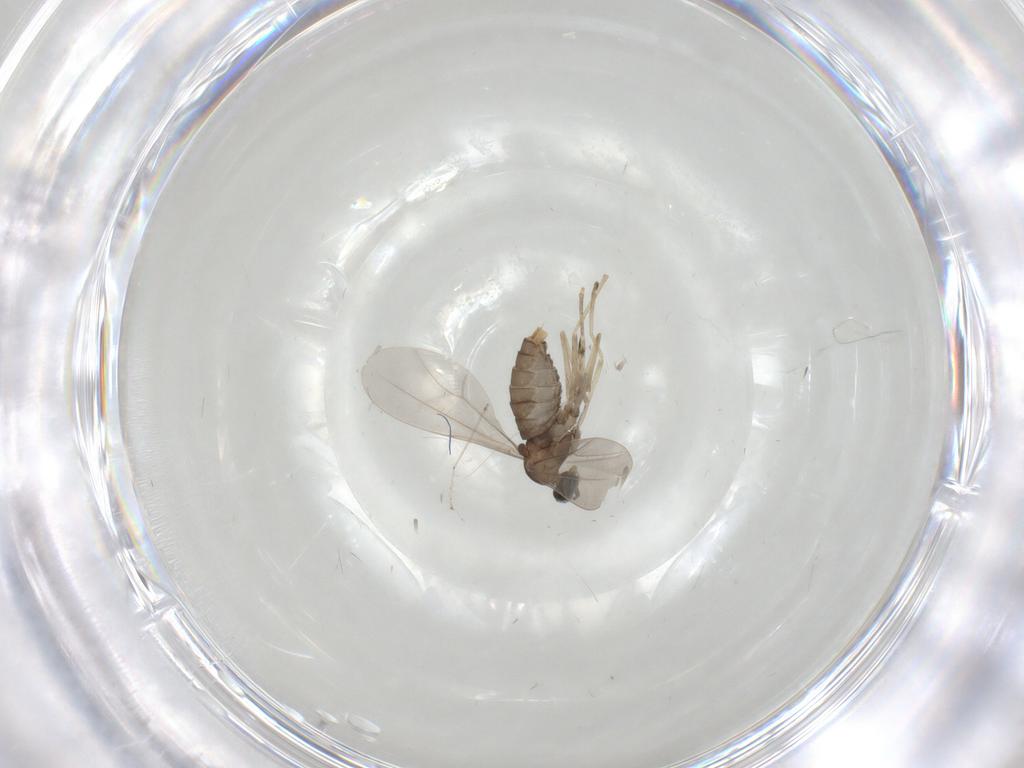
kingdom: Animalia
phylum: Arthropoda
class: Insecta
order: Diptera
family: Cecidomyiidae
